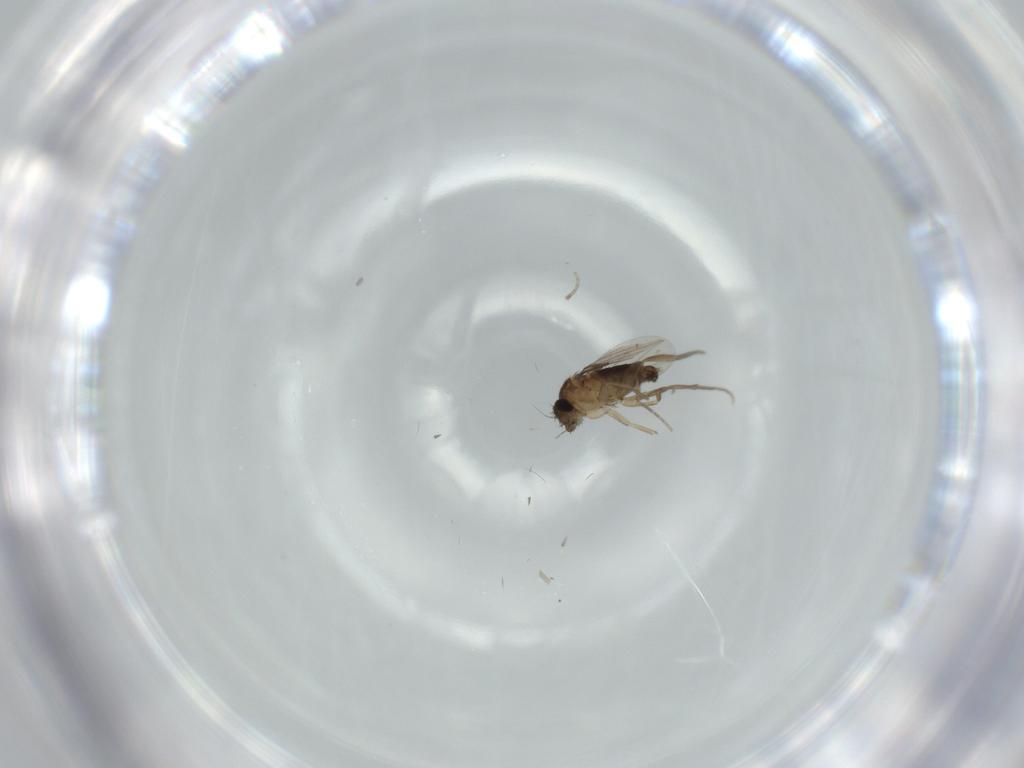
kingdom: Animalia
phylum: Arthropoda
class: Insecta
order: Diptera
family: Phoridae
